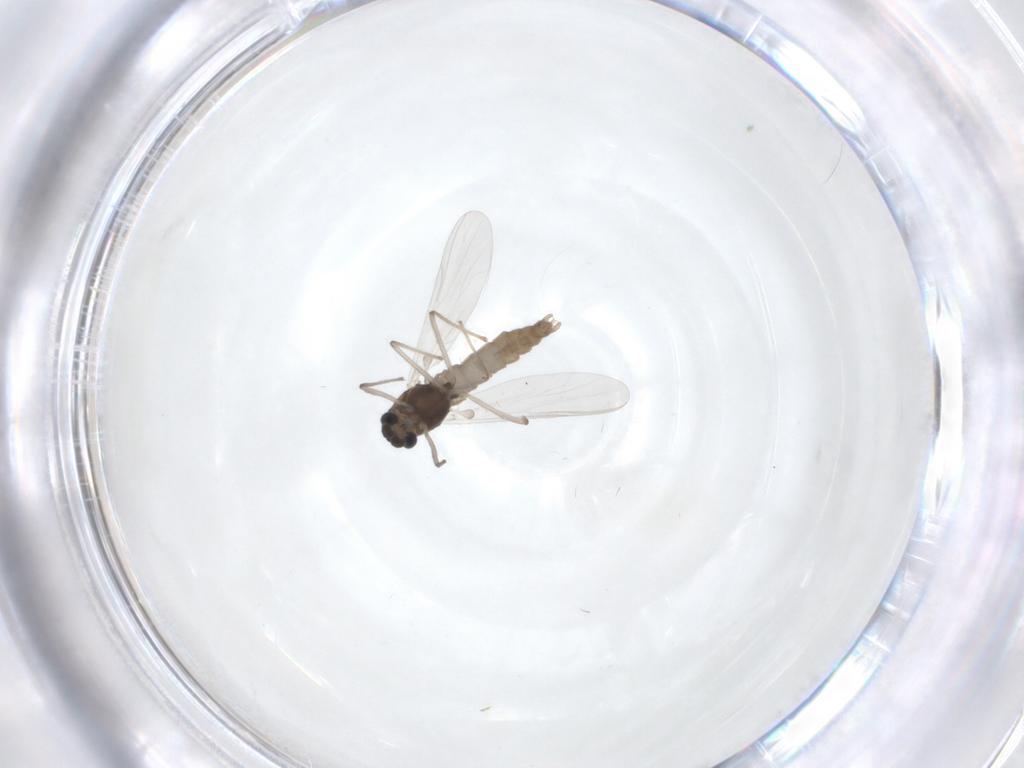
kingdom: Animalia
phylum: Arthropoda
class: Insecta
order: Diptera
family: Chironomidae
